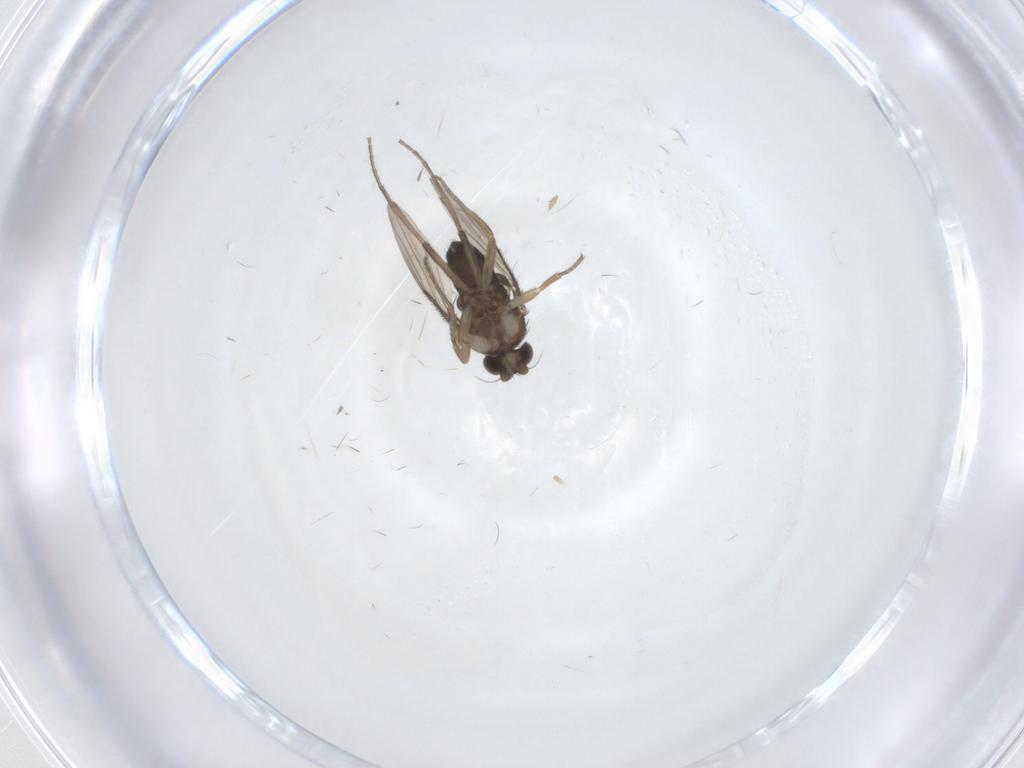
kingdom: Animalia
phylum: Arthropoda
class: Insecta
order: Diptera
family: Phoridae
